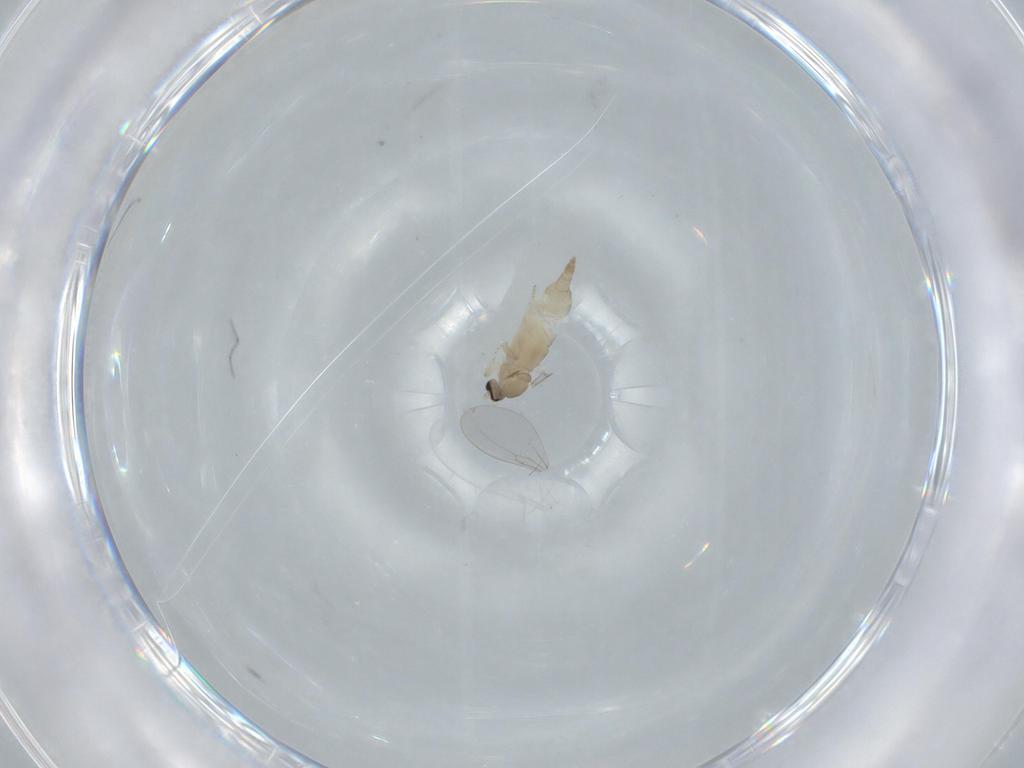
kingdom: Animalia
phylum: Arthropoda
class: Insecta
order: Diptera
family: Cecidomyiidae
